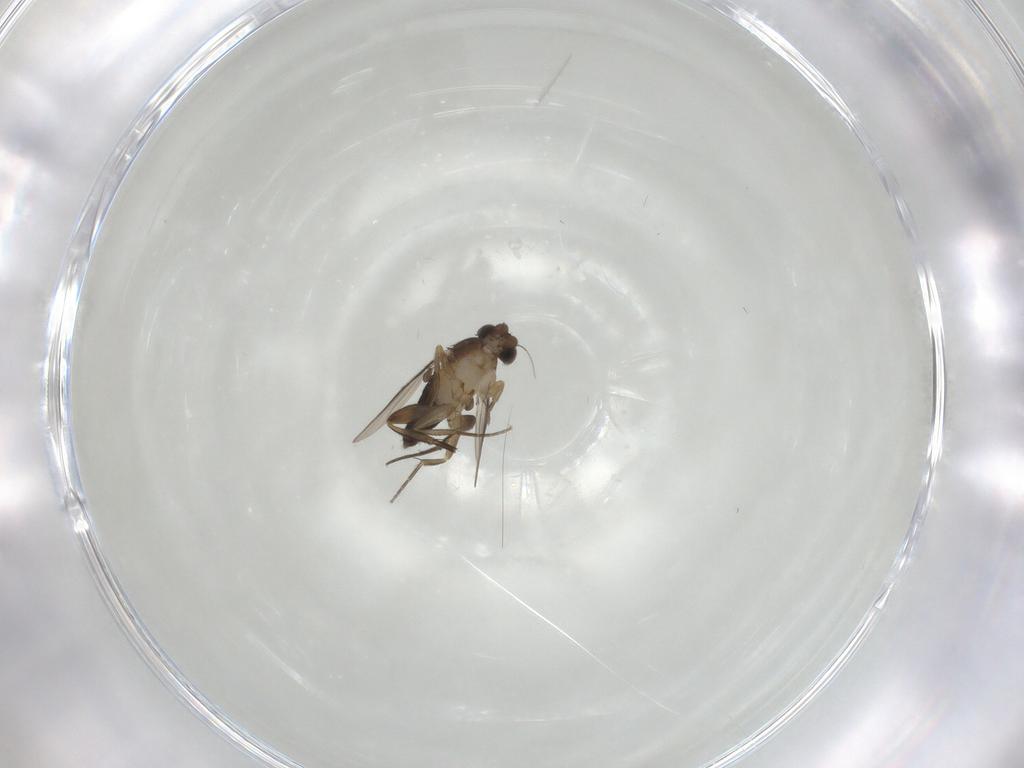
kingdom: Animalia
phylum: Arthropoda
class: Insecta
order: Diptera
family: Phoridae
